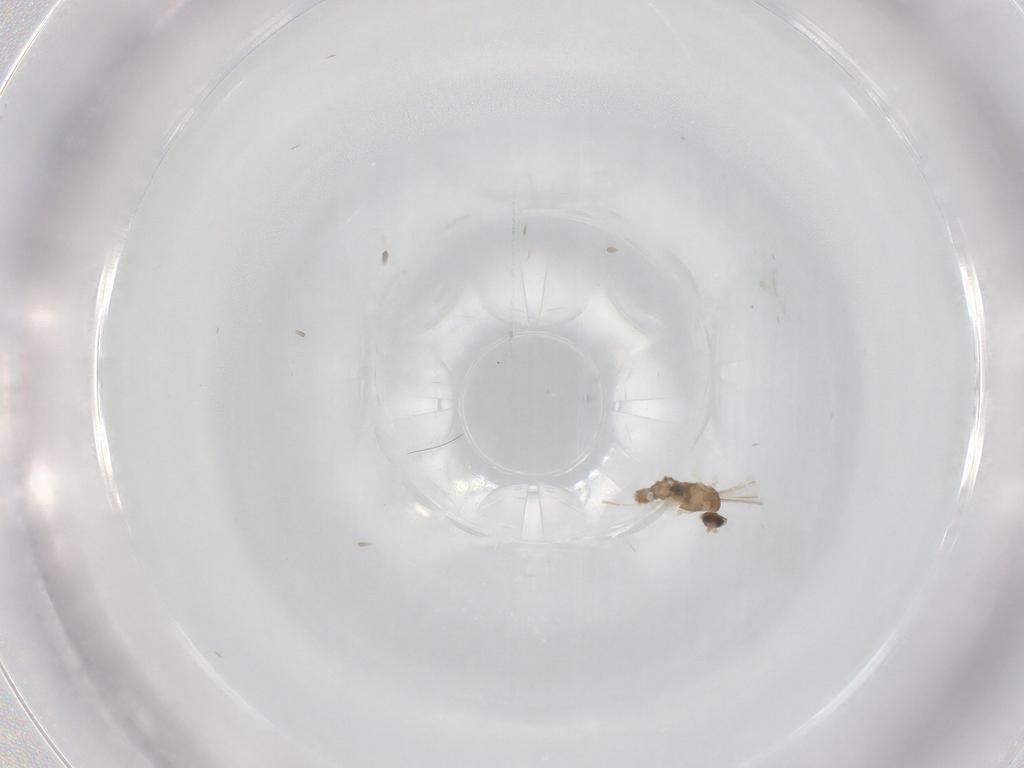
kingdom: Animalia
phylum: Arthropoda
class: Insecta
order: Diptera
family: Cecidomyiidae
